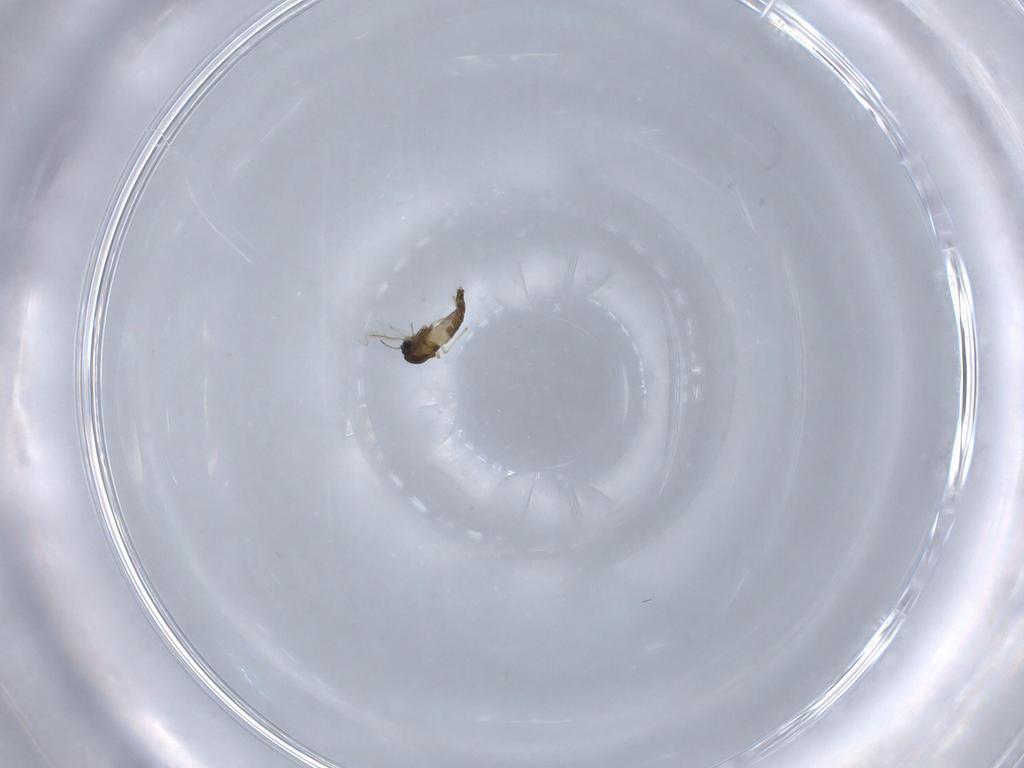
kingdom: Animalia
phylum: Arthropoda
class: Insecta
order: Diptera
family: Chironomidae
